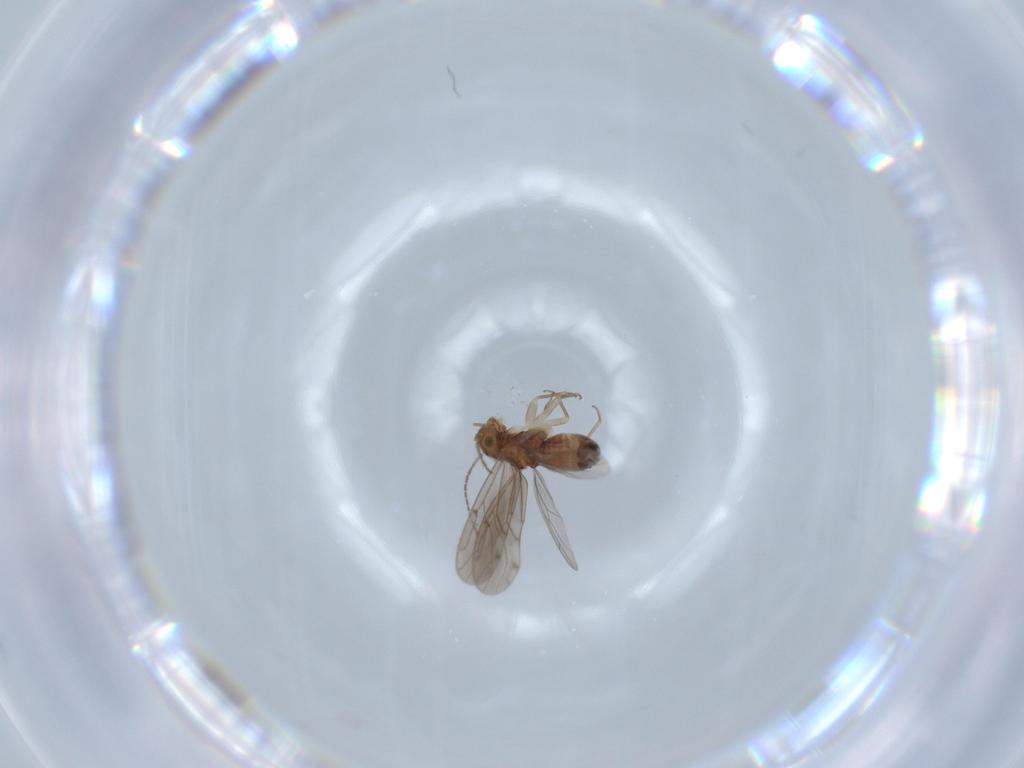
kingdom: Animalia
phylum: Arthropoda
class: Insecta
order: Psocodea
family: Ectopsocidae
